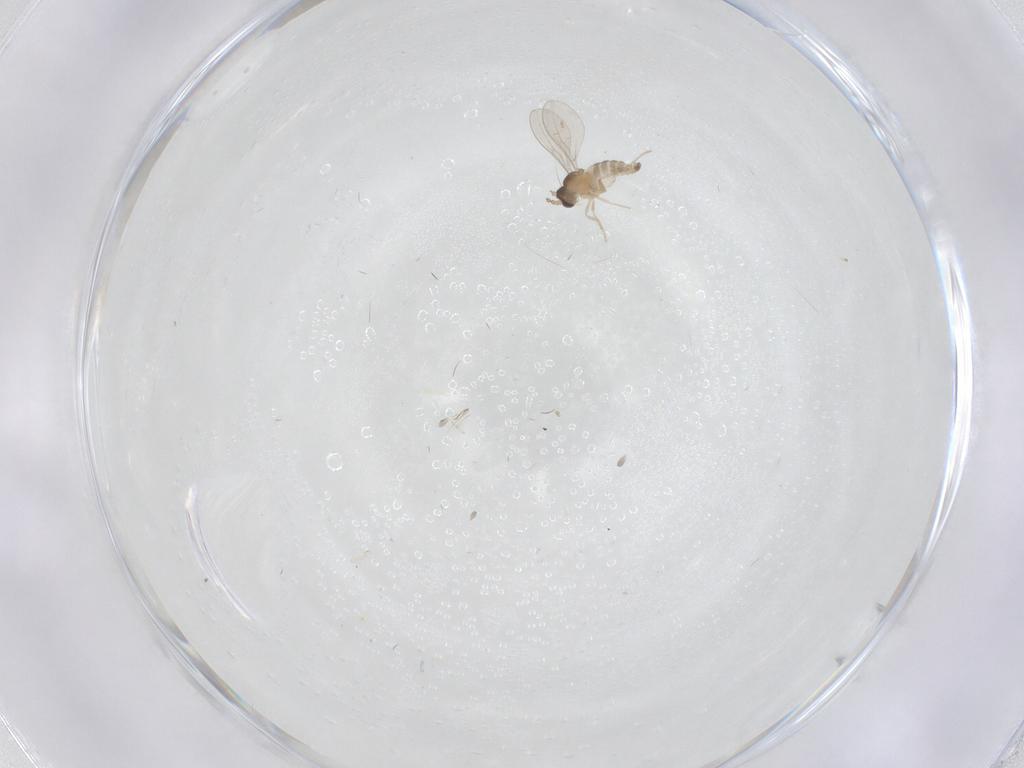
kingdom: Animalia
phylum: Arthropoda
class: Insecta
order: Diptera
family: Cecidomyiidae
